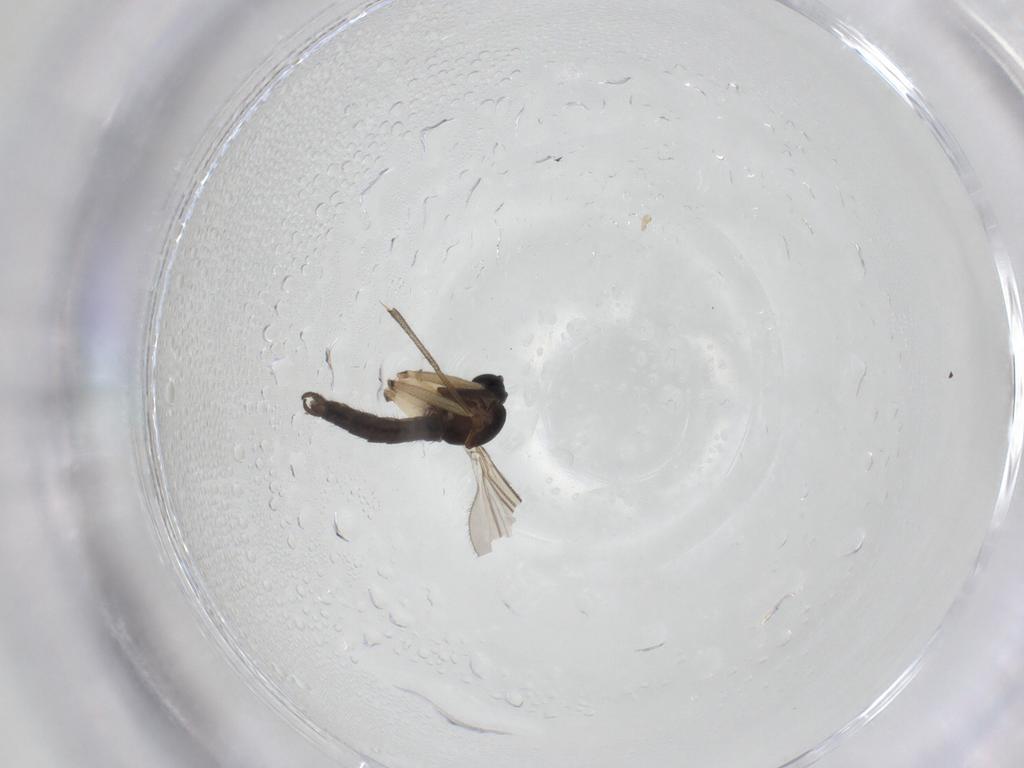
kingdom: Animalia
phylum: Arthropoda
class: Insecta
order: Diptera
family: Sciaridae
